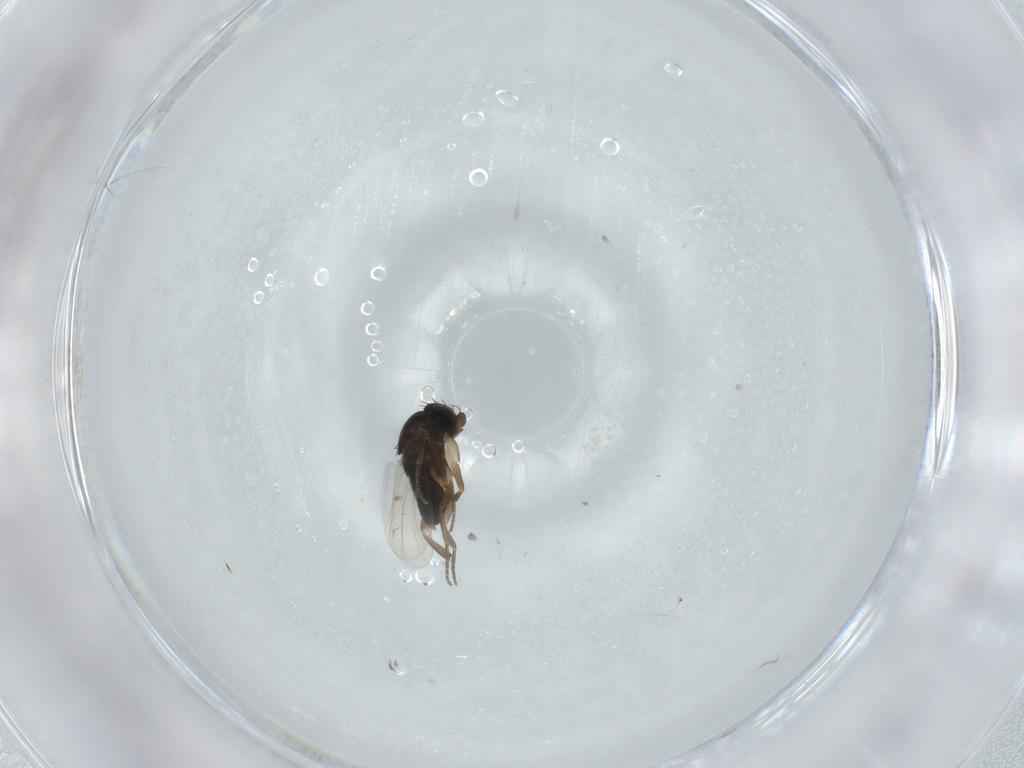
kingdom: Animalia
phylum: Arthropoda
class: Insecta
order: Diptera
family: Phoridae
